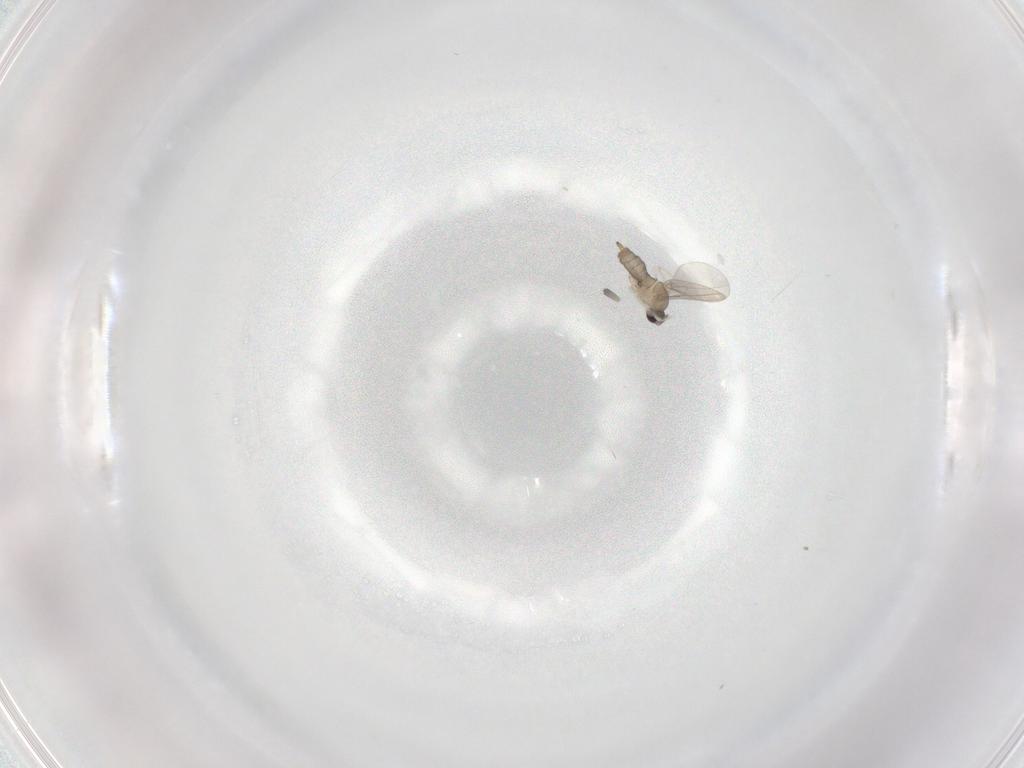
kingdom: Animalia
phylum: Arthropoda
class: Insecta
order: Diptera
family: Cecidomyiidae
